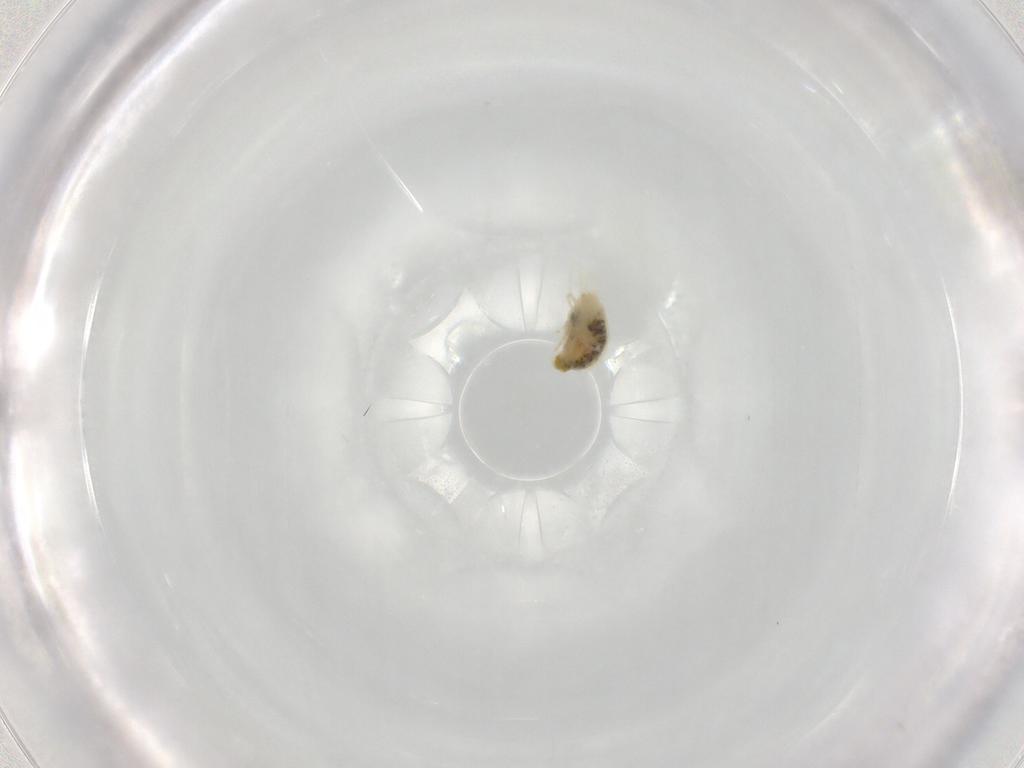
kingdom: Animalia
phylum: Arthropoda
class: Arachnida
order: Trombidiformes
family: Tetranychidae
